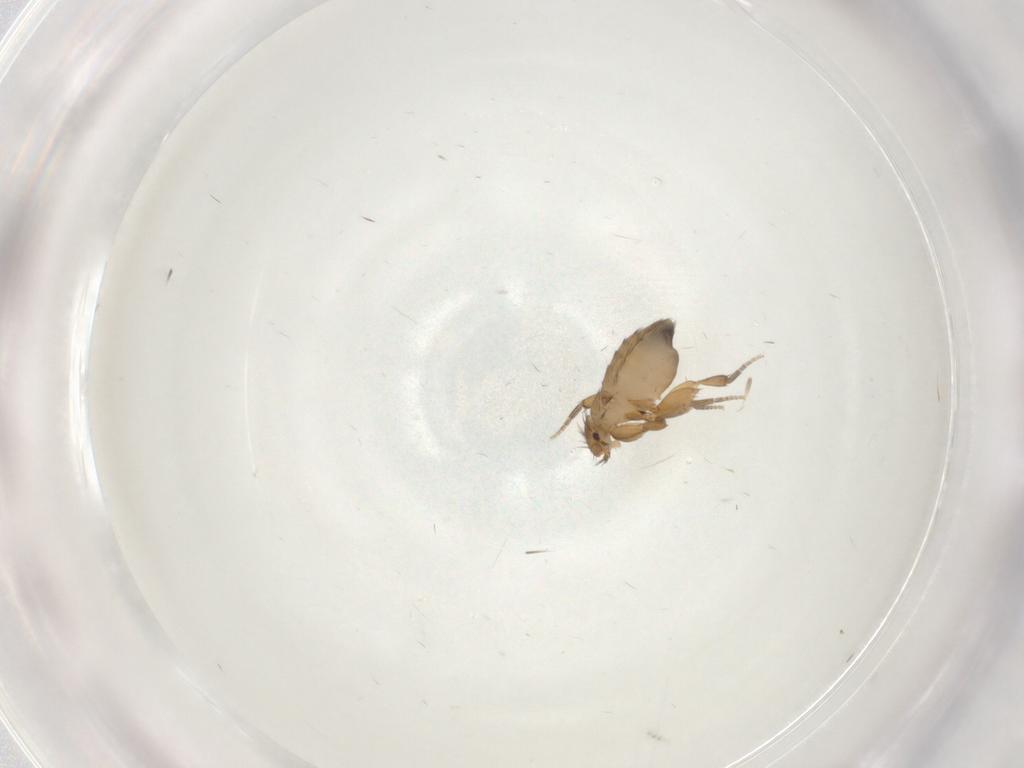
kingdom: Animalia
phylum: Arthropoda
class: Insecta
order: Diptera
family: Phoridae
